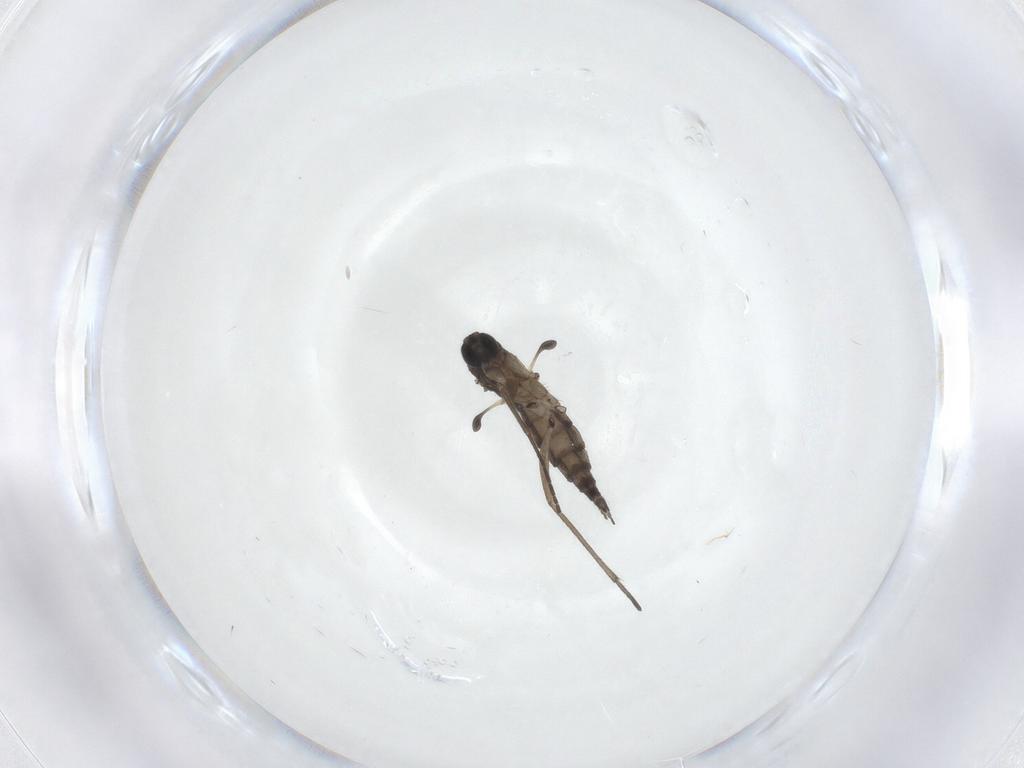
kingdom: Animalia
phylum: Arthropoda
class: Insecta
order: Diptera
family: Sciaridae
